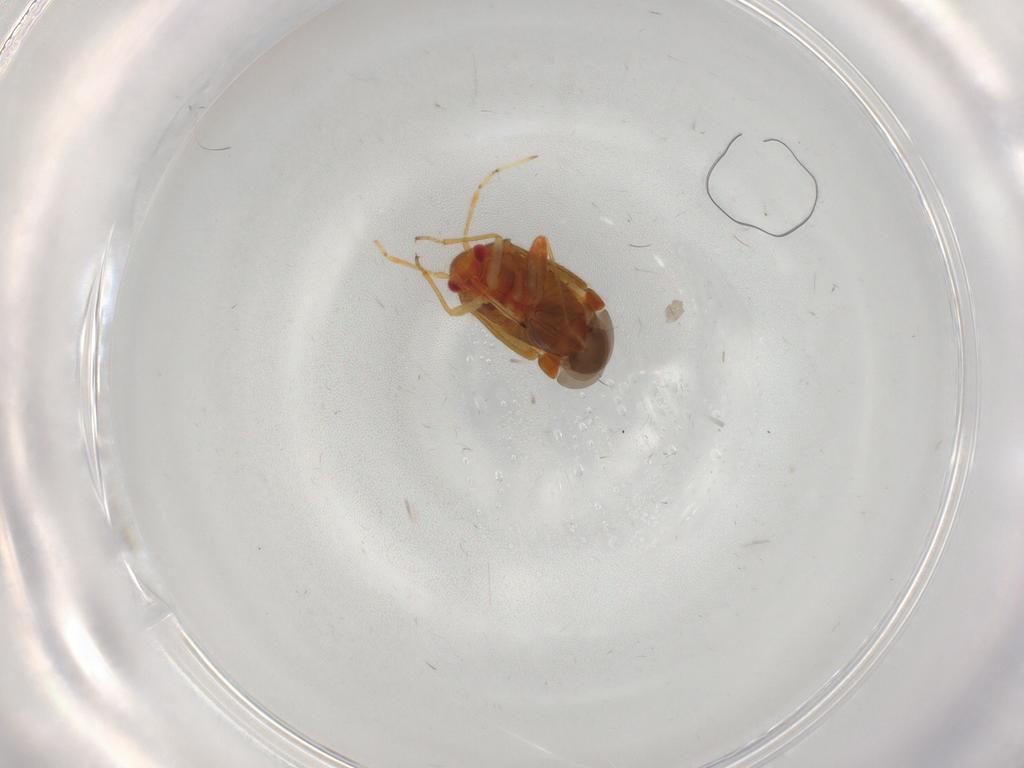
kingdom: Animalia
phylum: Arthropoda
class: Insecta
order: Hemiptera
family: Miridae
